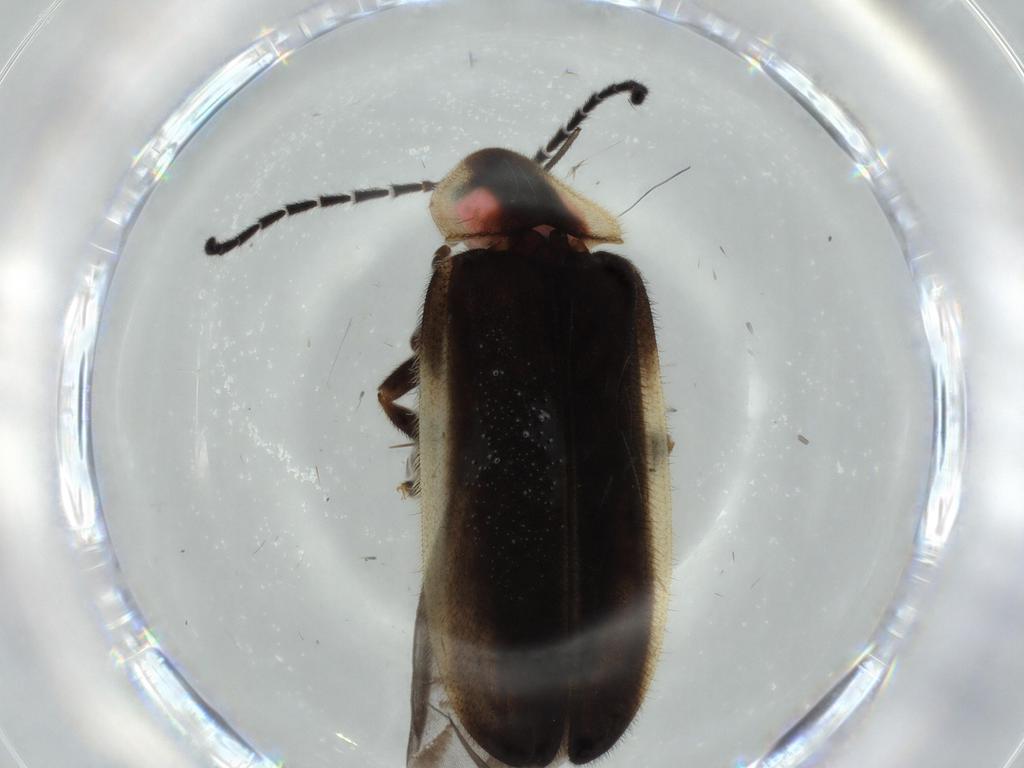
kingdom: Animalia
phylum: Arthropoda
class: Insecta
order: Coleoptera
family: Lampyridae
